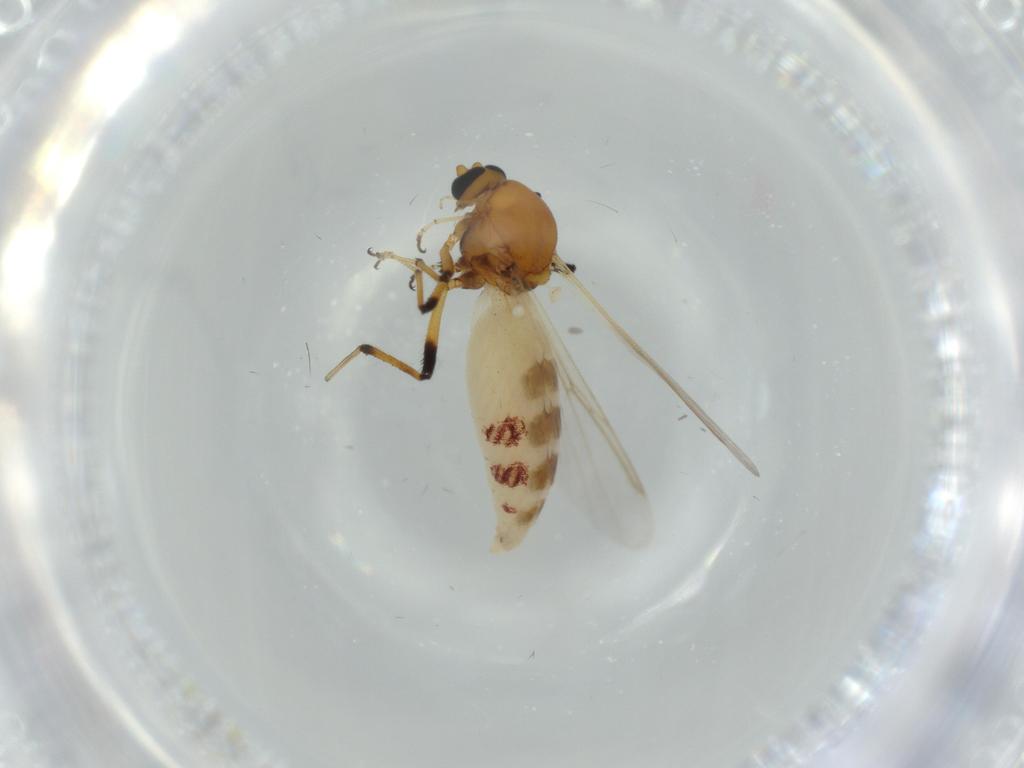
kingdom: Animalia
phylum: Arthropoda
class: Insecta
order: Diptera
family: Ceratopogonidae
